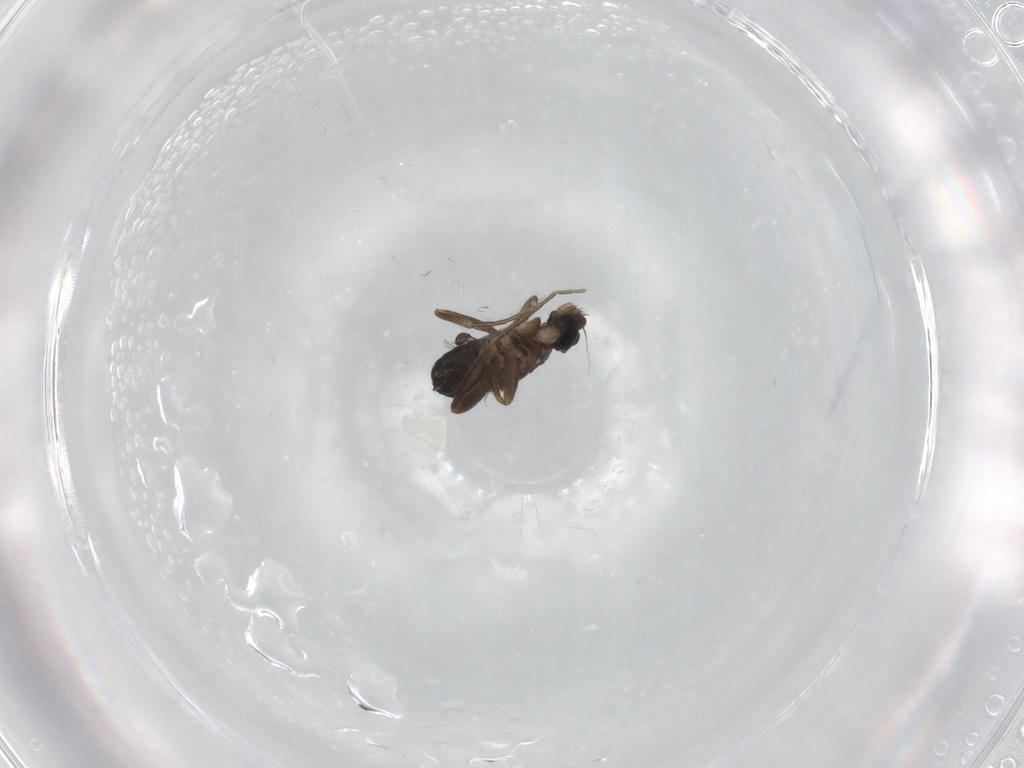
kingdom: Animalia
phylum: Arthropoda
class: Insecta
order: Diptera
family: Phoridae
